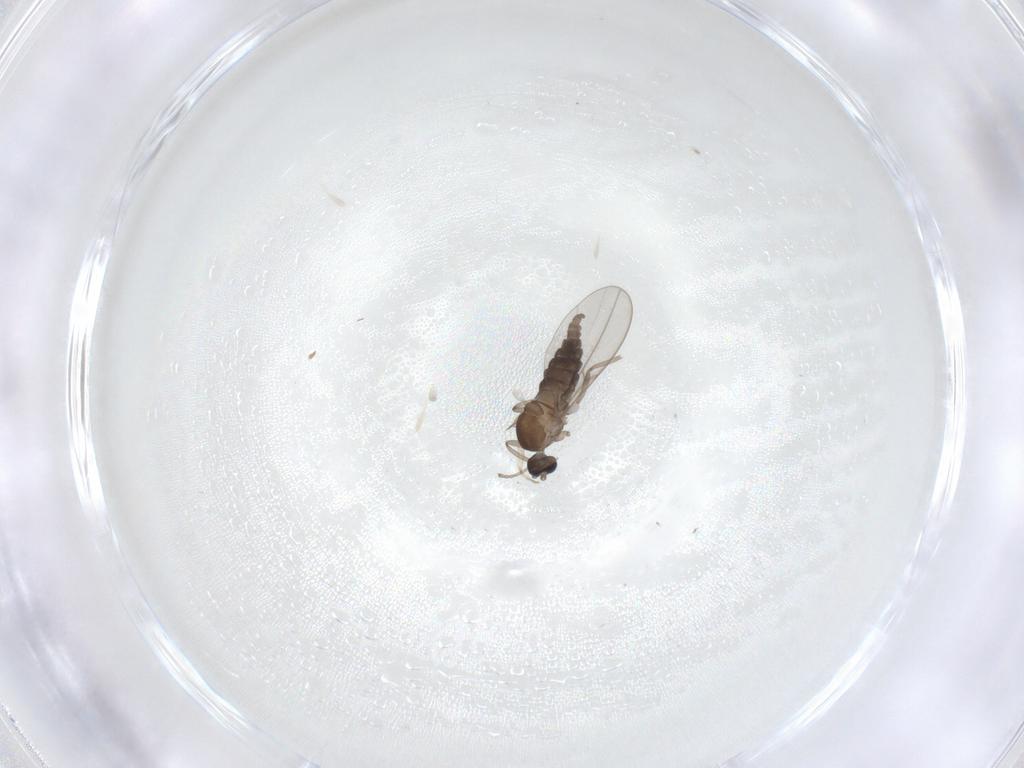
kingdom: Animalia
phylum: Arthropoda
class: Insecta
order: Diptera
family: Cecidomyiidae
